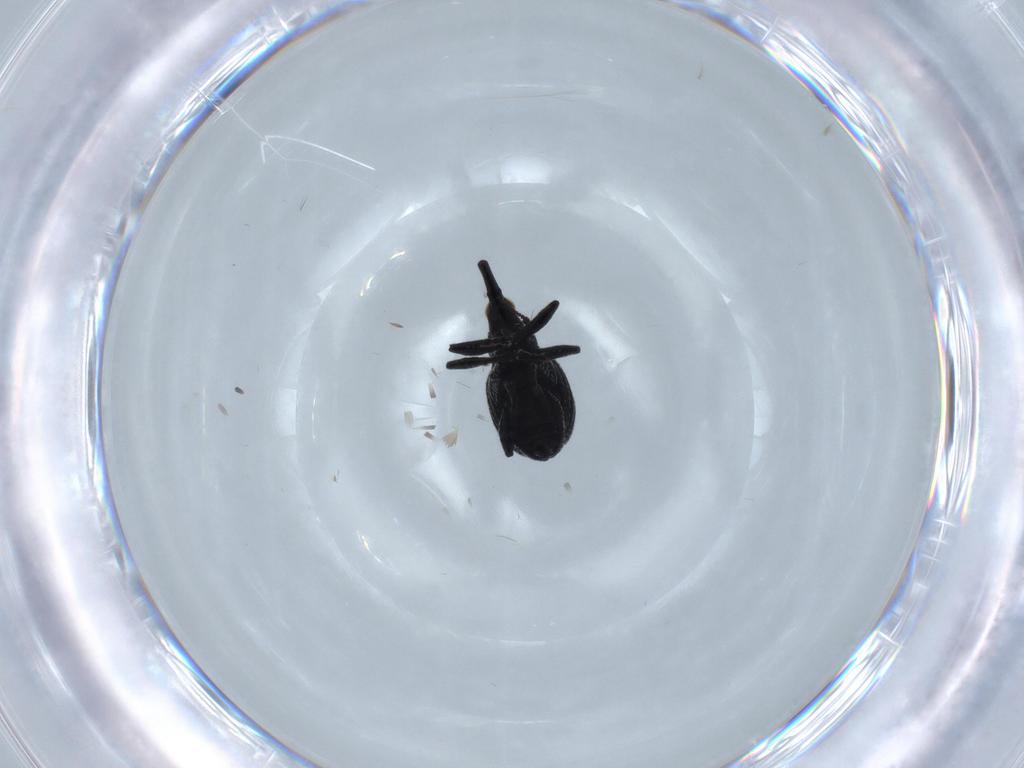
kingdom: Animalia
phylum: Arthropoda
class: Insecta
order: Coleoptera
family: Brentidae
